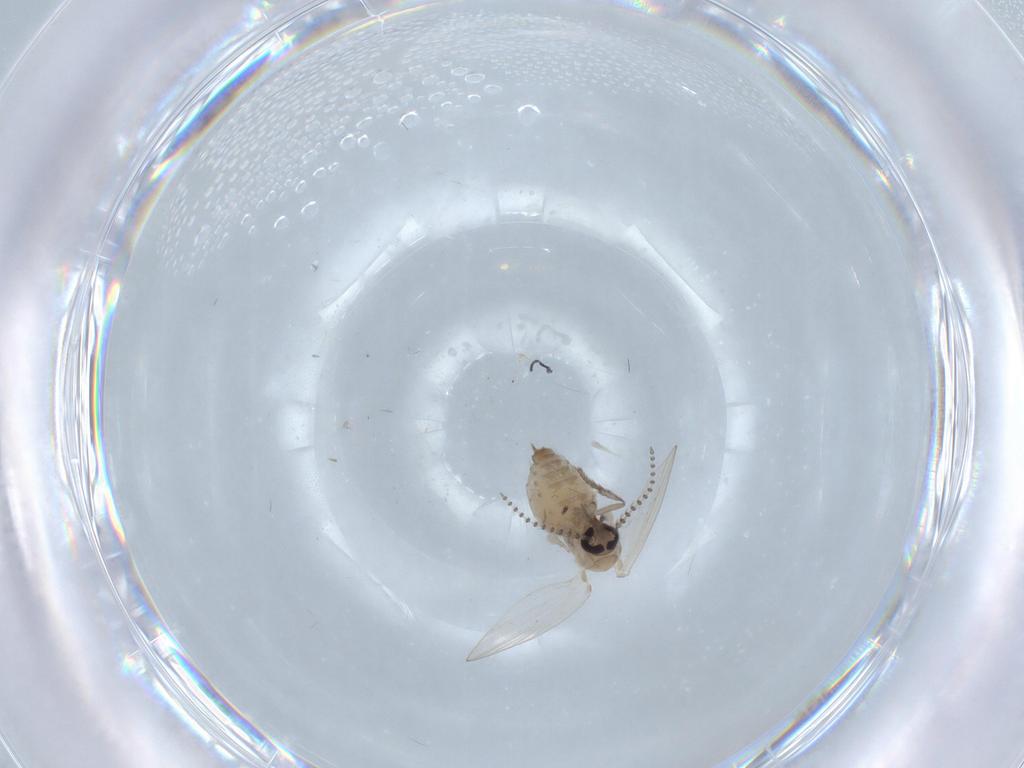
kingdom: Animalia
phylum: Arthropoda
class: Insecta
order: Diptera
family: Psychodidae
